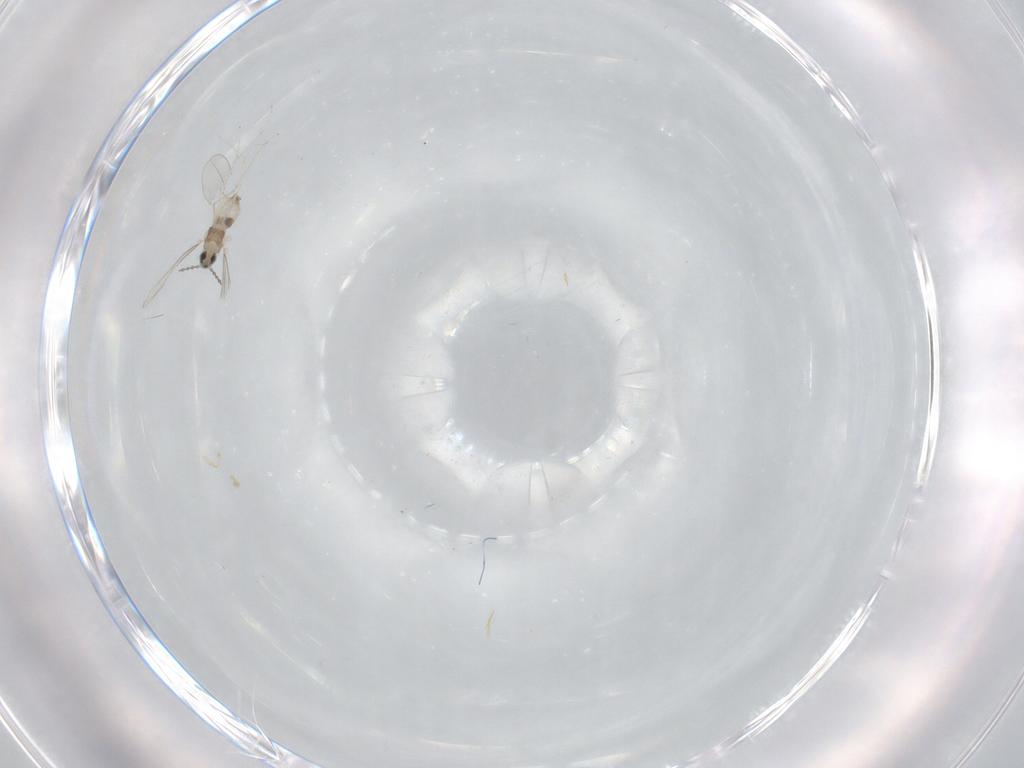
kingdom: Animalia
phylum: Arthropoda
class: Insecta
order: Diptera
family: Cecidomyiidae
